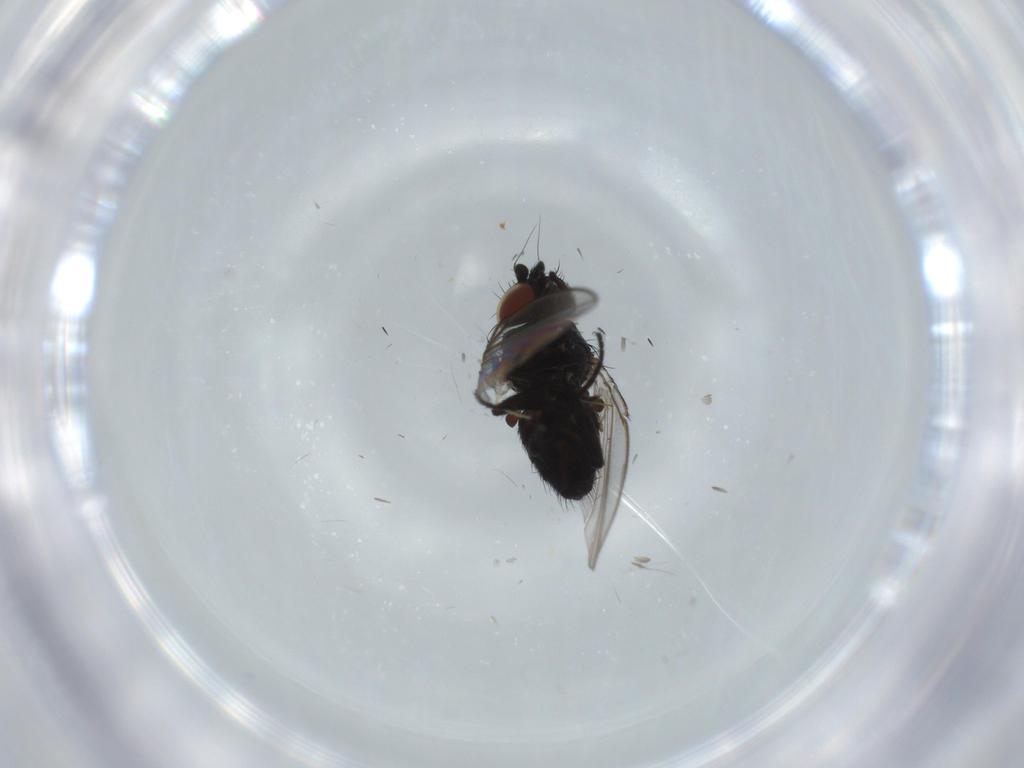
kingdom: Animalia
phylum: Arthropoda
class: Insecta
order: Diptera
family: Milichiidae
